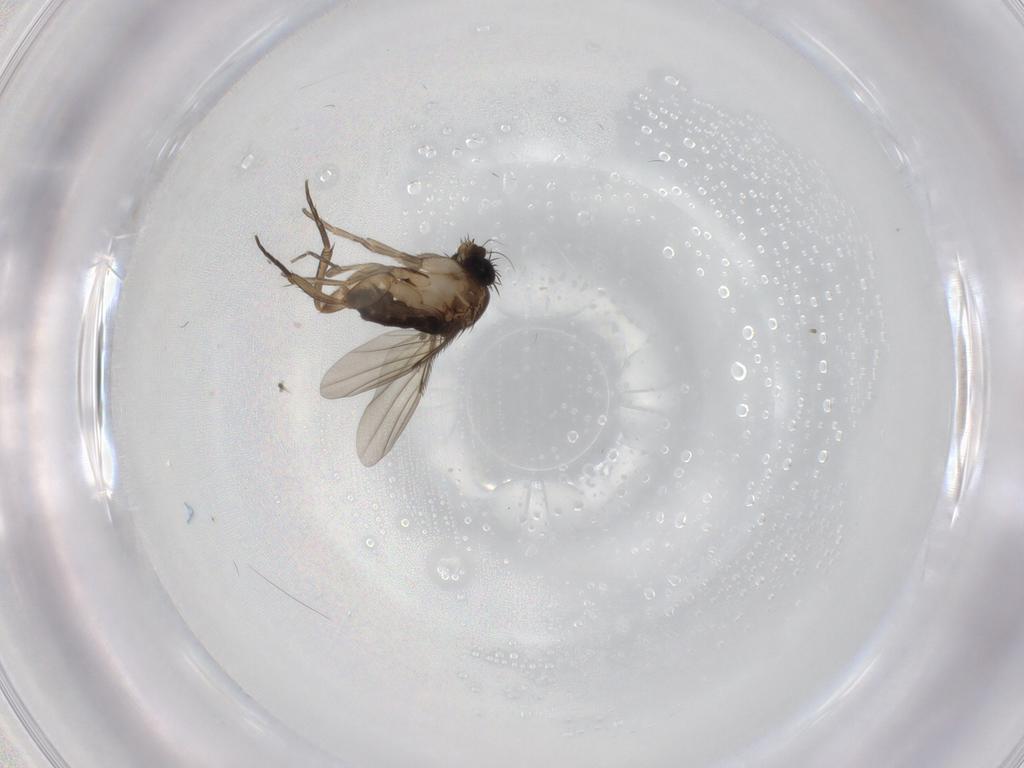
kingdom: Animalia
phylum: Arthropoda
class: Insecta
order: Diptera
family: Phoridae
